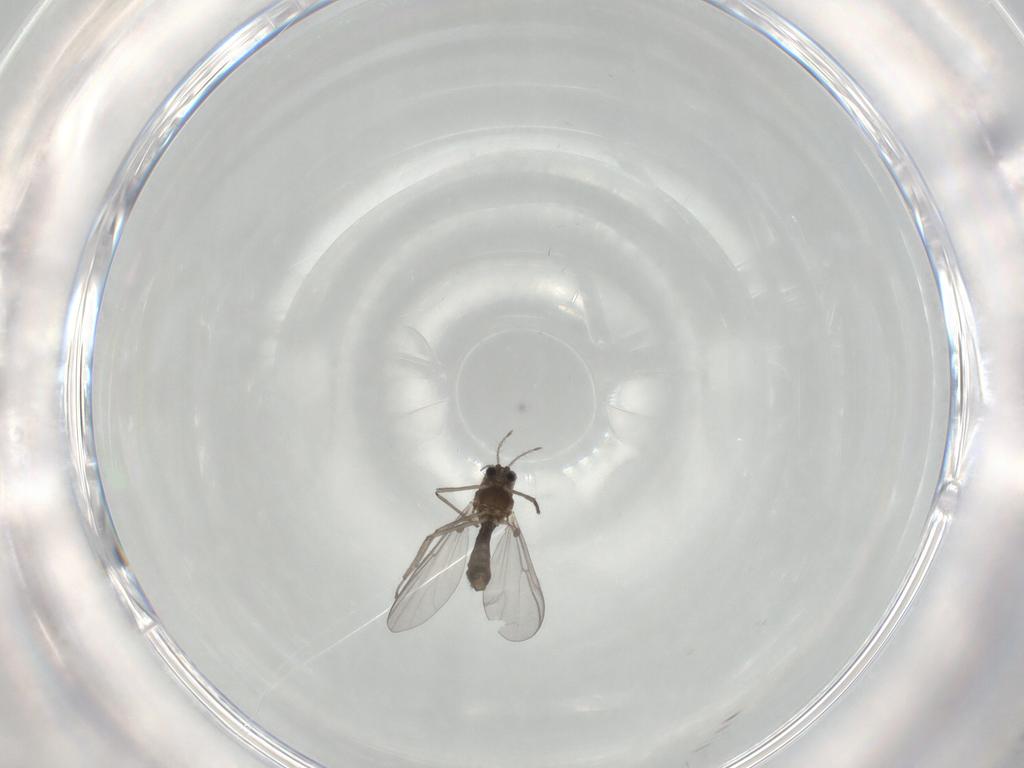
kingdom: Animalia
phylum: Arthropoda
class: Insecta
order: Diptera
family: Chironomidae
